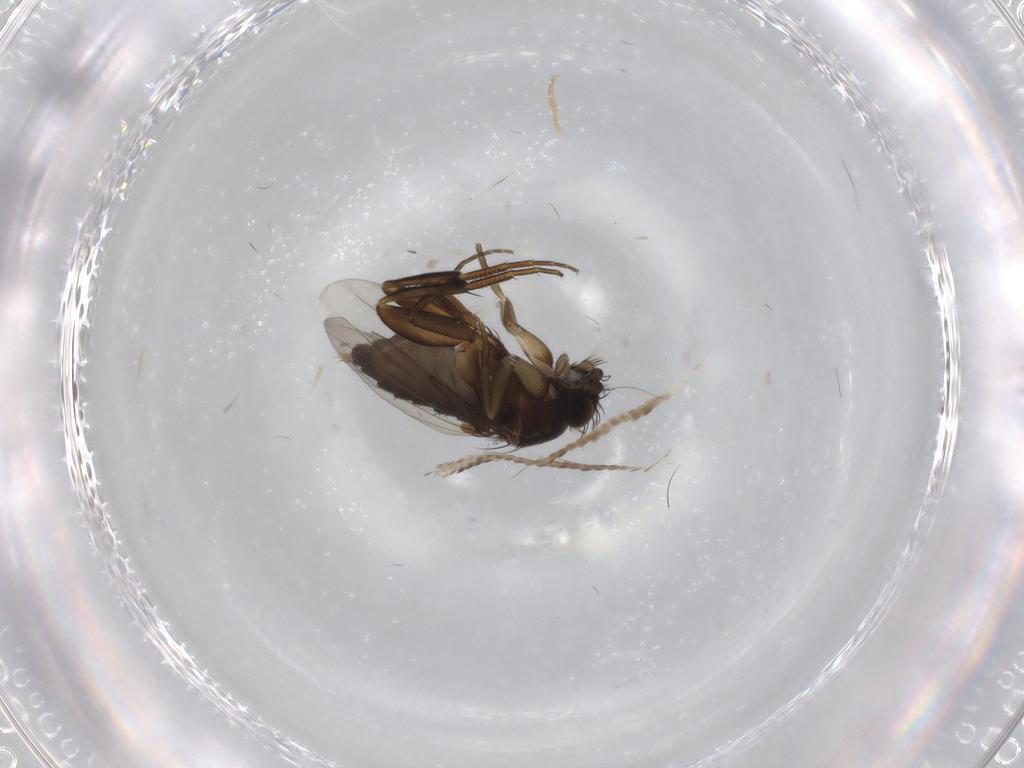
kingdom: Animalia
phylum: Arthropoda
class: Insecta
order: Diptera
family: Phoridae
